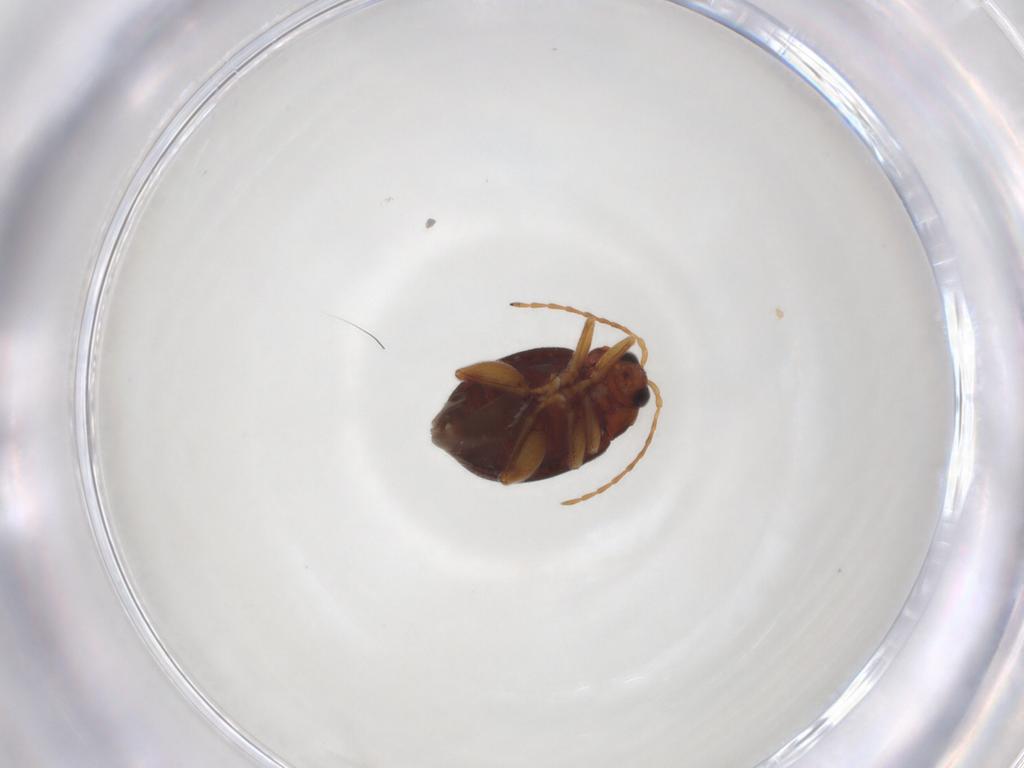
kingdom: Animalia
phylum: Arthropoda
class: Insecta
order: Coleoptera
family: Chrysomelidae
